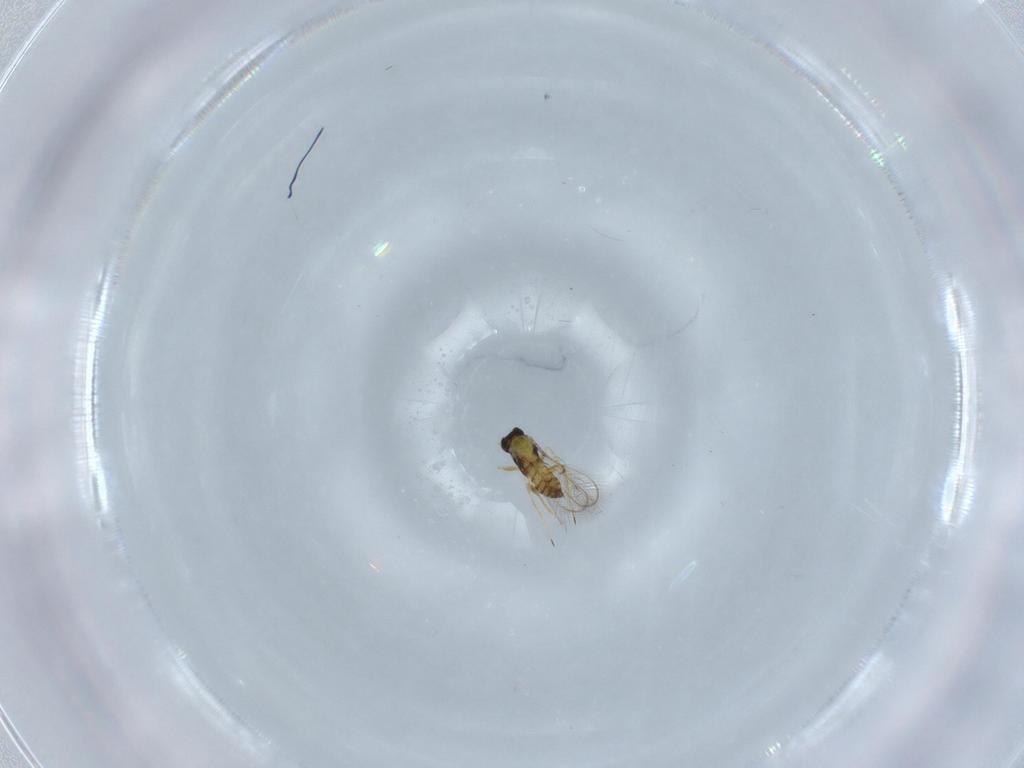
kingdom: Animalia
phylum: Arthropoda
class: Insecta
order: Hymenoptera
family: Trichogrammatidae
